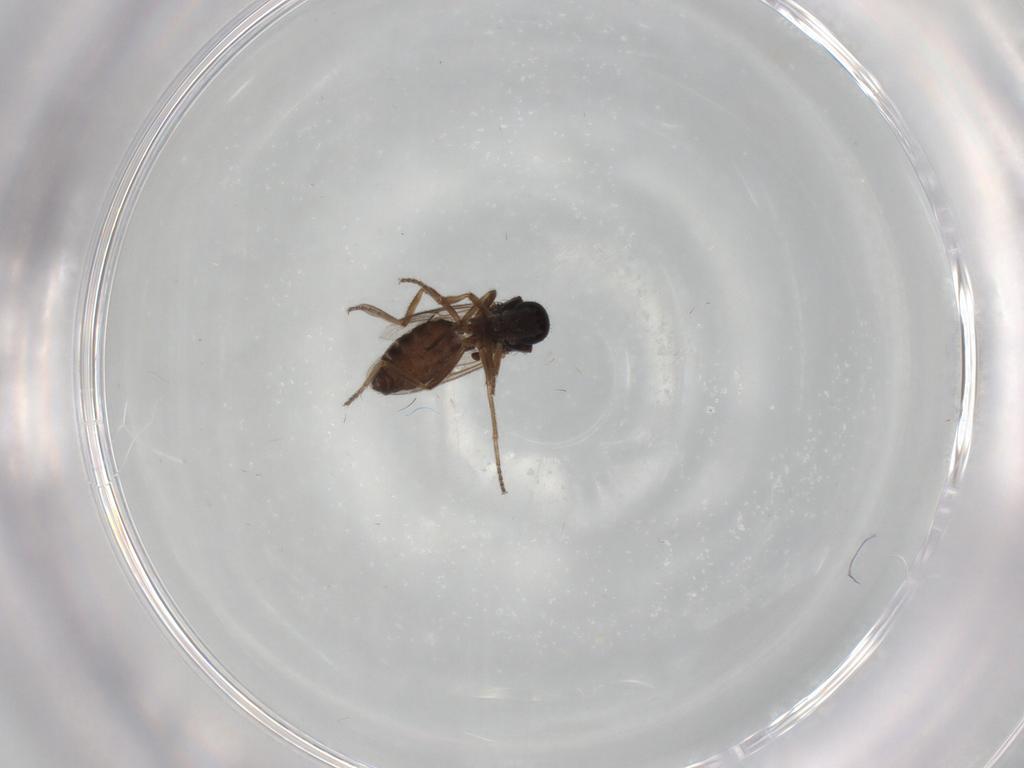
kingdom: Animalia
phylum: Arthropoda
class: Insecta
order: Diptera
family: Ceratopogonidae
